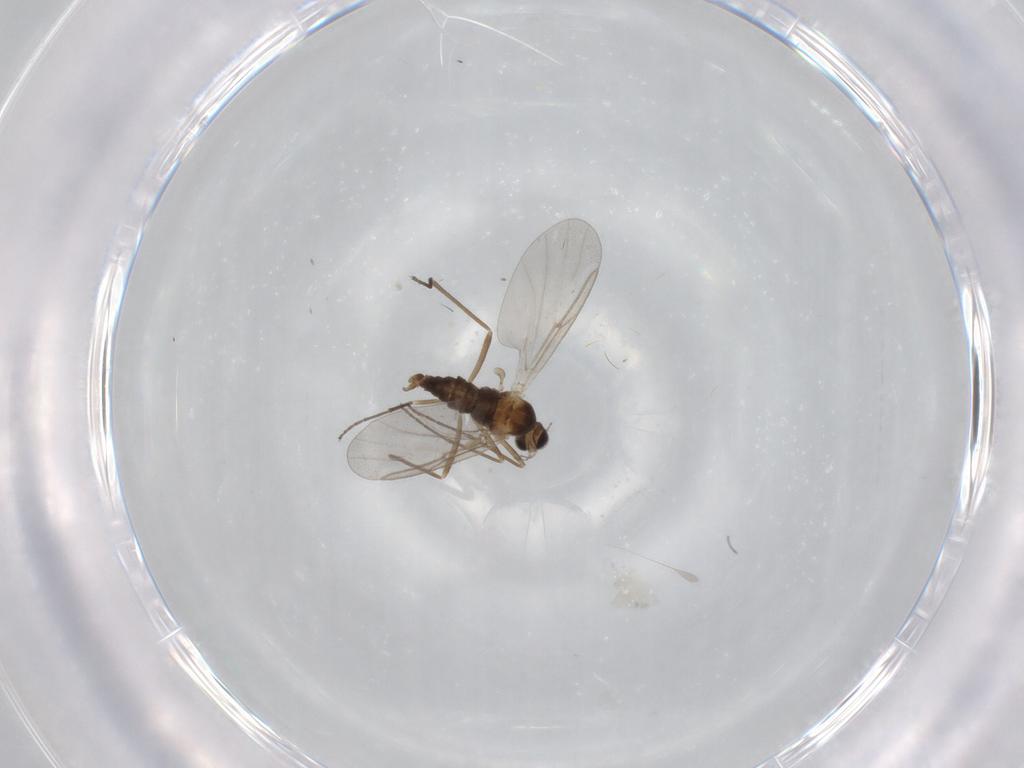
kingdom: Animalia
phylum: Arthropoda
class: Insecta
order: Diptera
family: Cecidomyiidae
